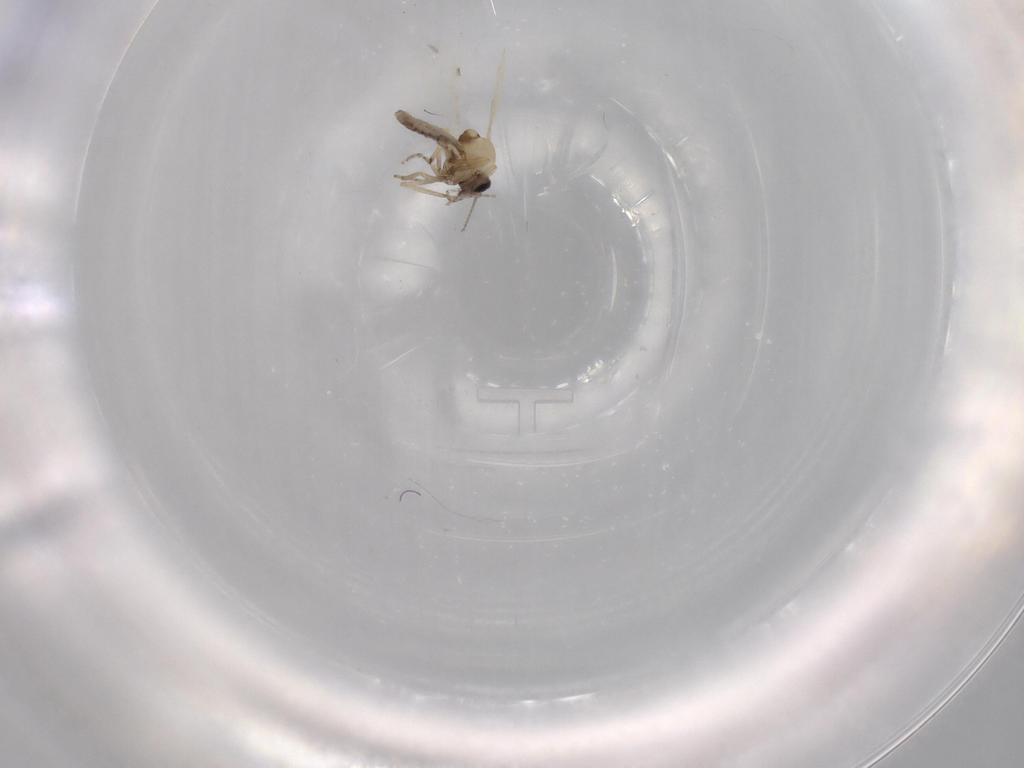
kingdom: Animalia
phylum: Arthropoda
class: Insecta
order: Diptera
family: Ceratopogonidae
